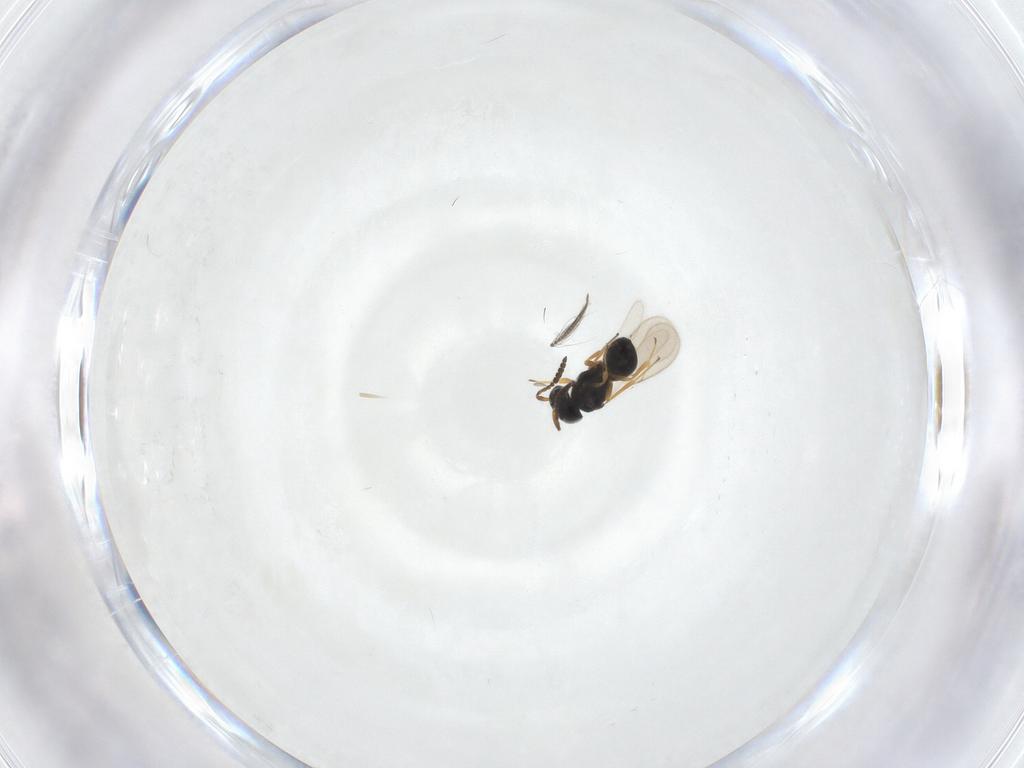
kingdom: Animalia
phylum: Arthropoda
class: Insecta
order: Hymenoptera
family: Scelionidae
